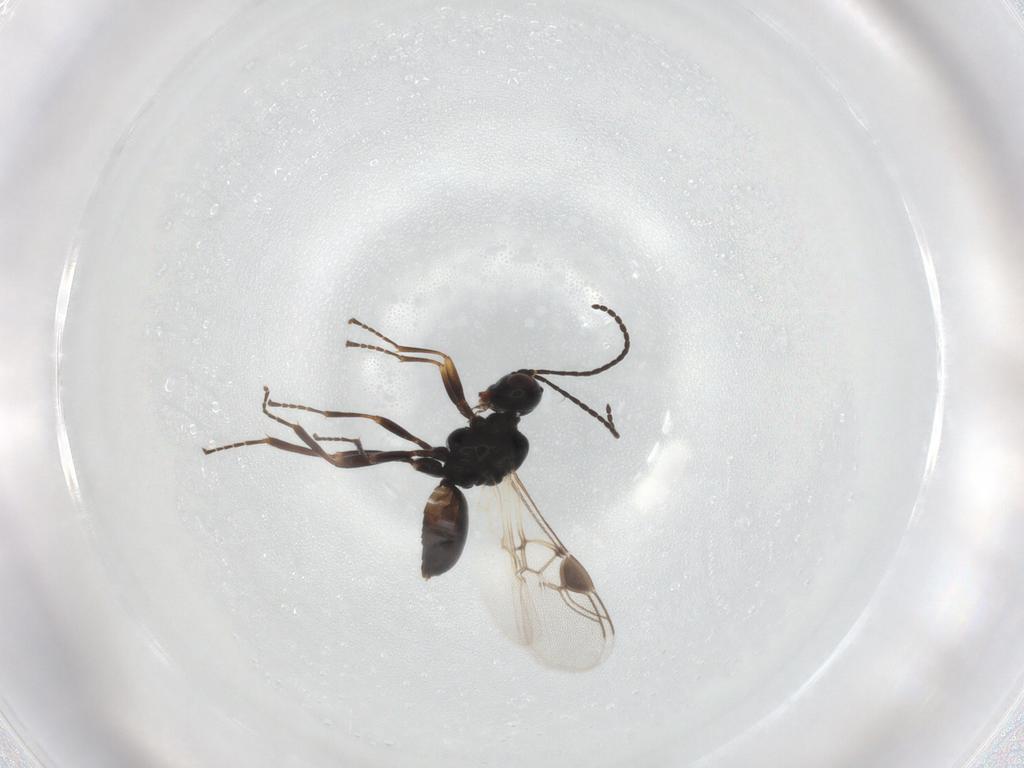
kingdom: Animalia
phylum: Arthropoda
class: Insecta
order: Hymenoptera
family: Braconidae
